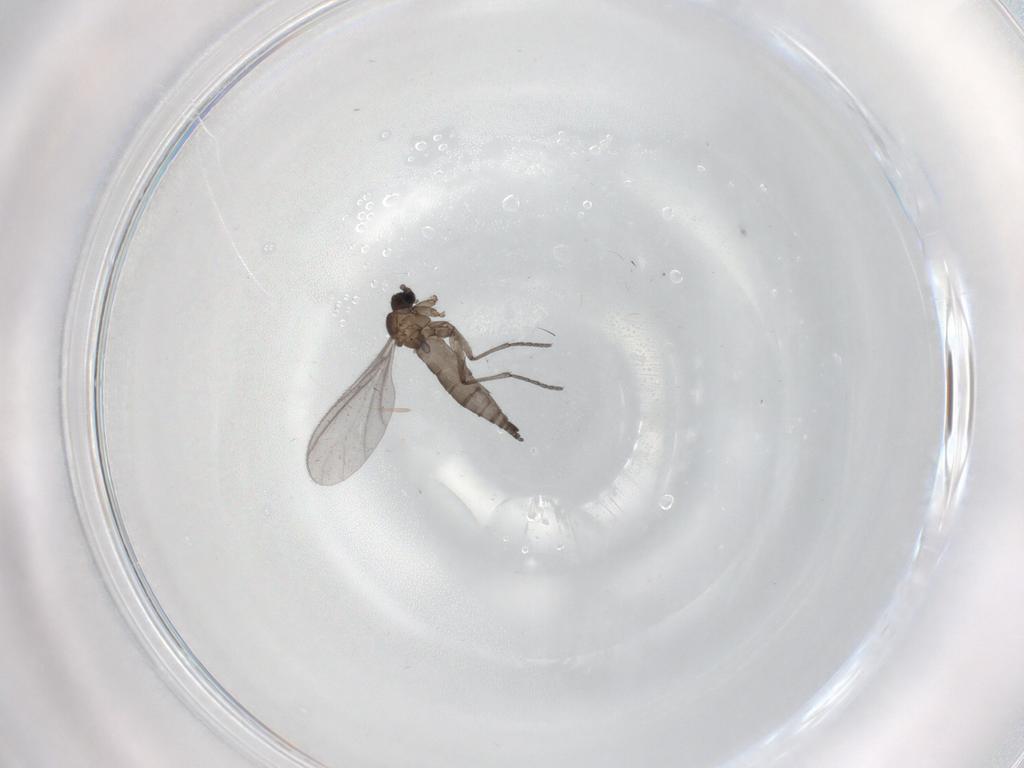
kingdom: Animalia
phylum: Arthropoda
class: Insecta
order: Diptera
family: Sciaridae
